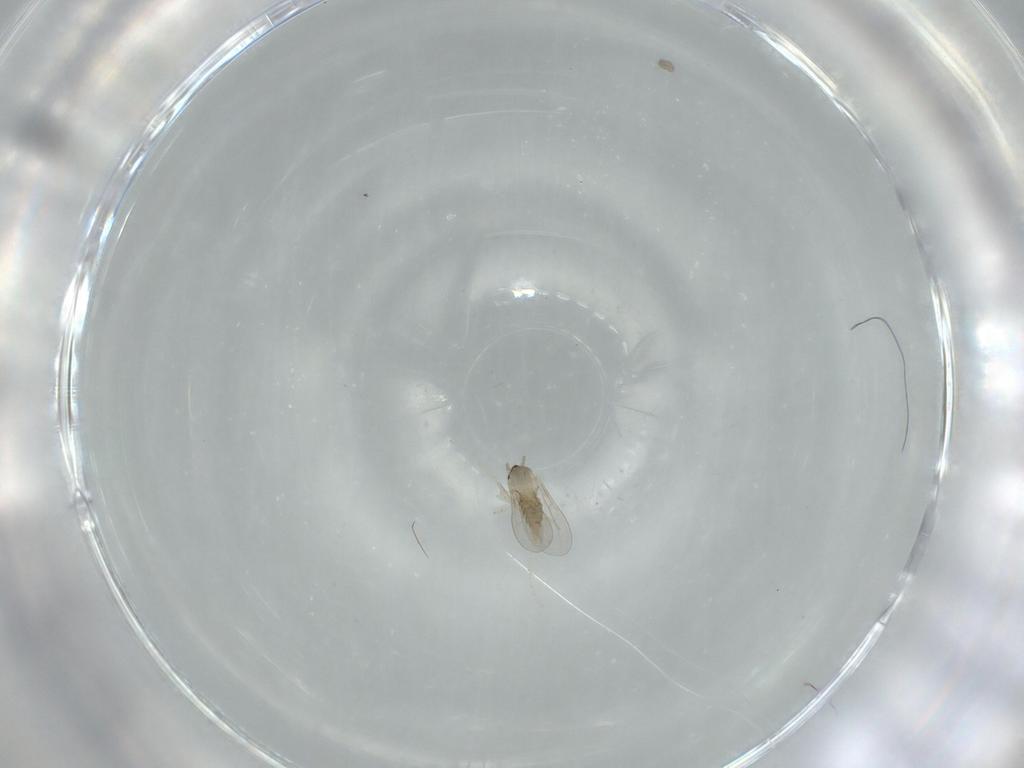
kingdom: Animalia
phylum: Arthropoda
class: Insecta
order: Diptera
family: Cecidomyiidae
